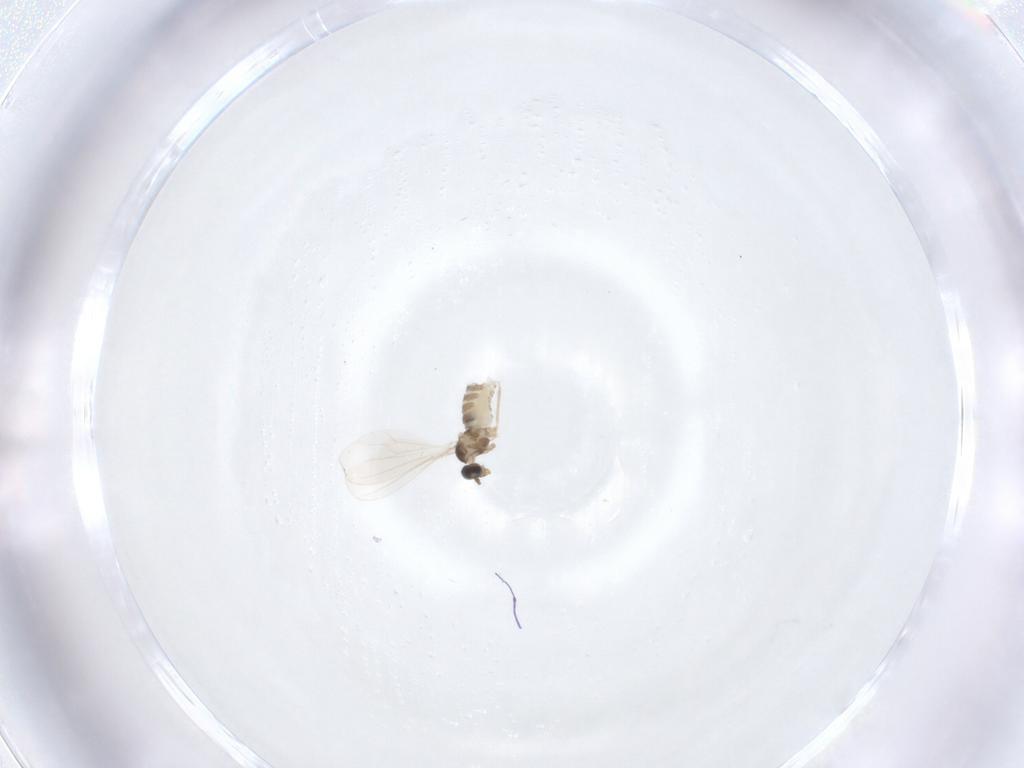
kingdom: Animalia
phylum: Arthropoda
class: Insecta
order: Diptera
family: Cecidomyiidae
